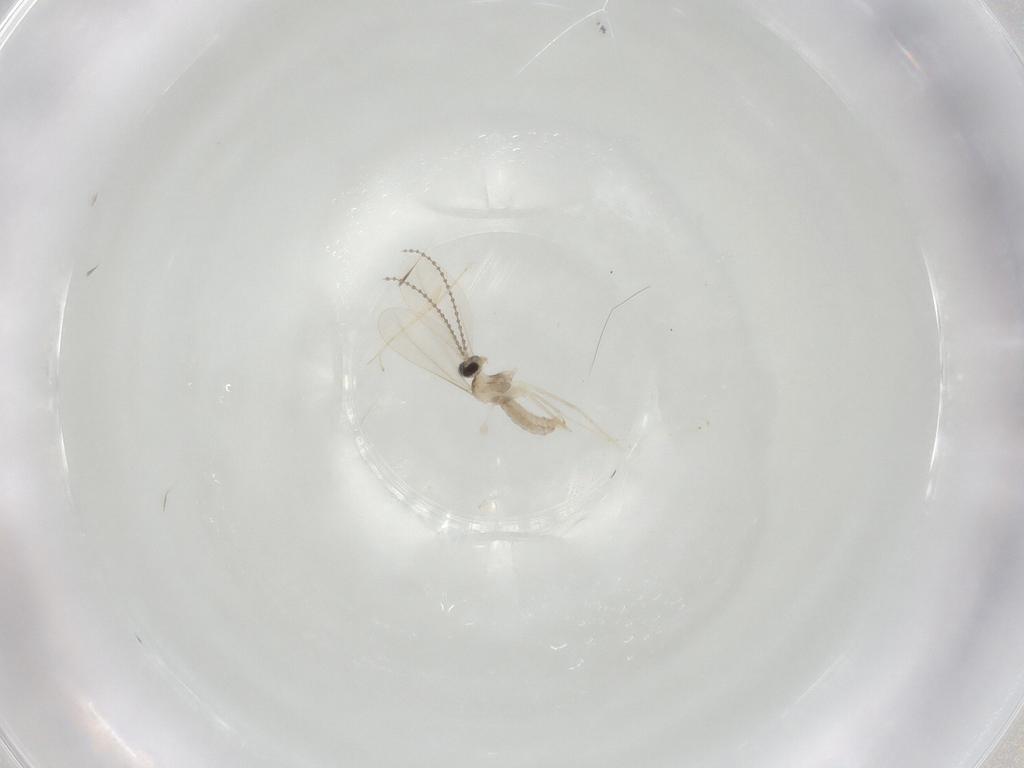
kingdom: Animalia
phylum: Arthropoda
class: Insecta
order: Diptera
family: Cecidomyiidae
